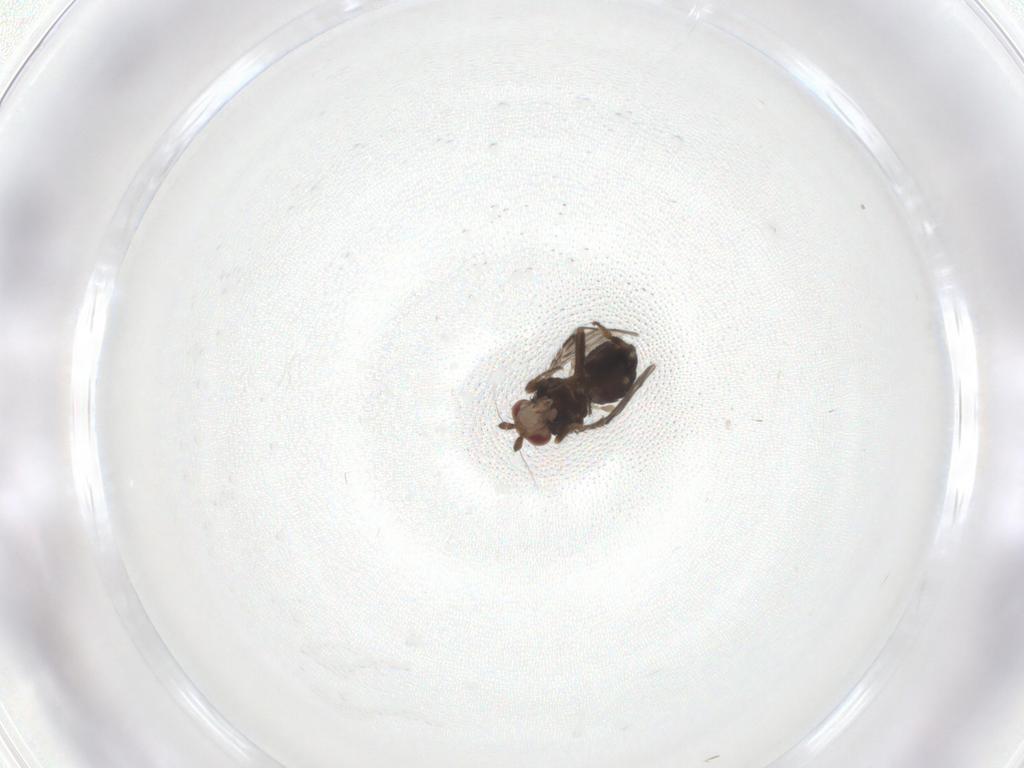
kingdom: Animalia
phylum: Arthropoda
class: Insecta
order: Diptera
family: Sphaeroceridae
